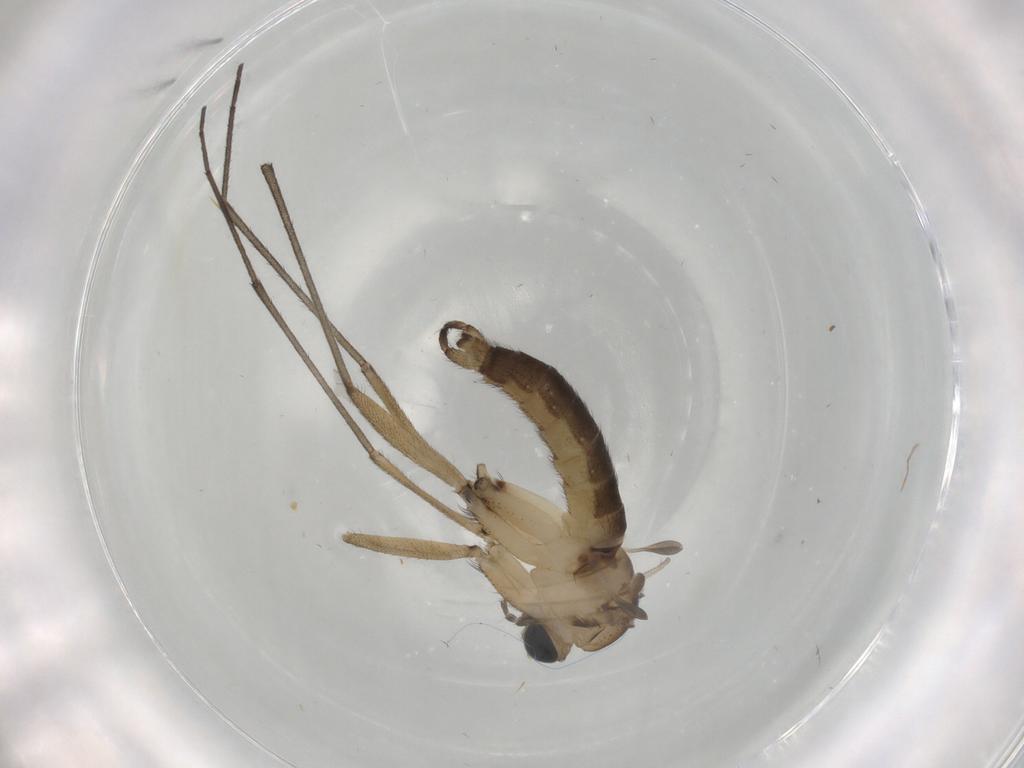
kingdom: Animalia
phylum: Arthropoda
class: Insecta
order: Diptera
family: Sciaridae
